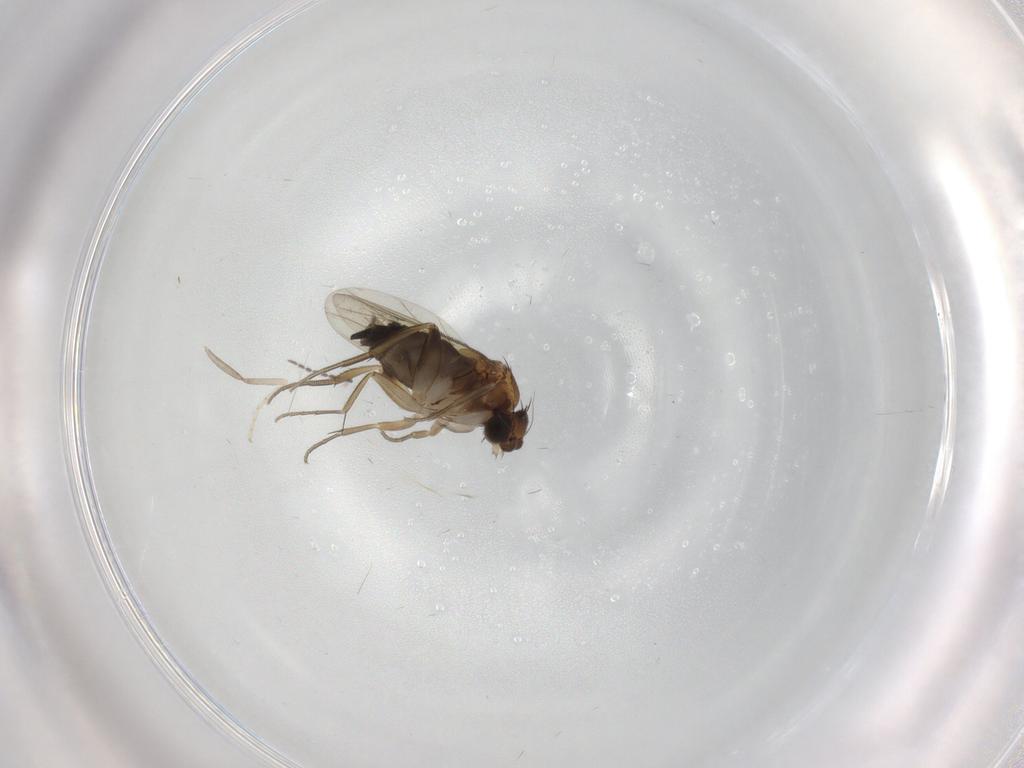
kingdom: Animalia
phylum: Arthropoda
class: Insecta
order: Diptera
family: Phoridae
